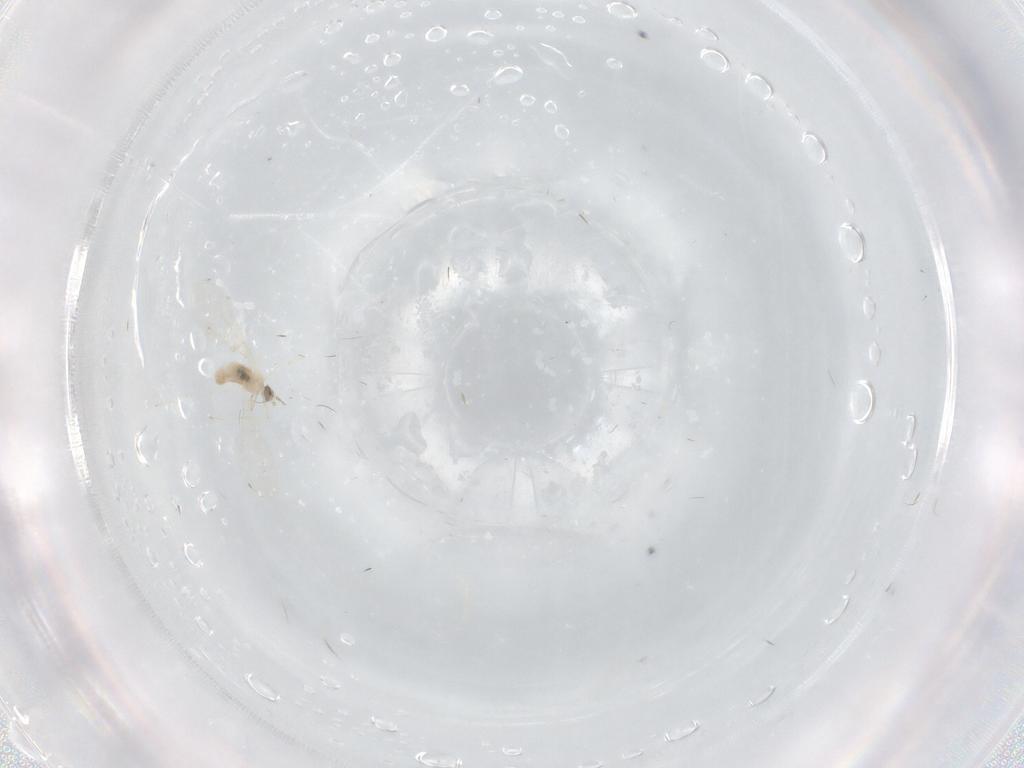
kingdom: Animalia
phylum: Arthropoda
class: Insecta
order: Diptera
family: Cecidomyiidae
